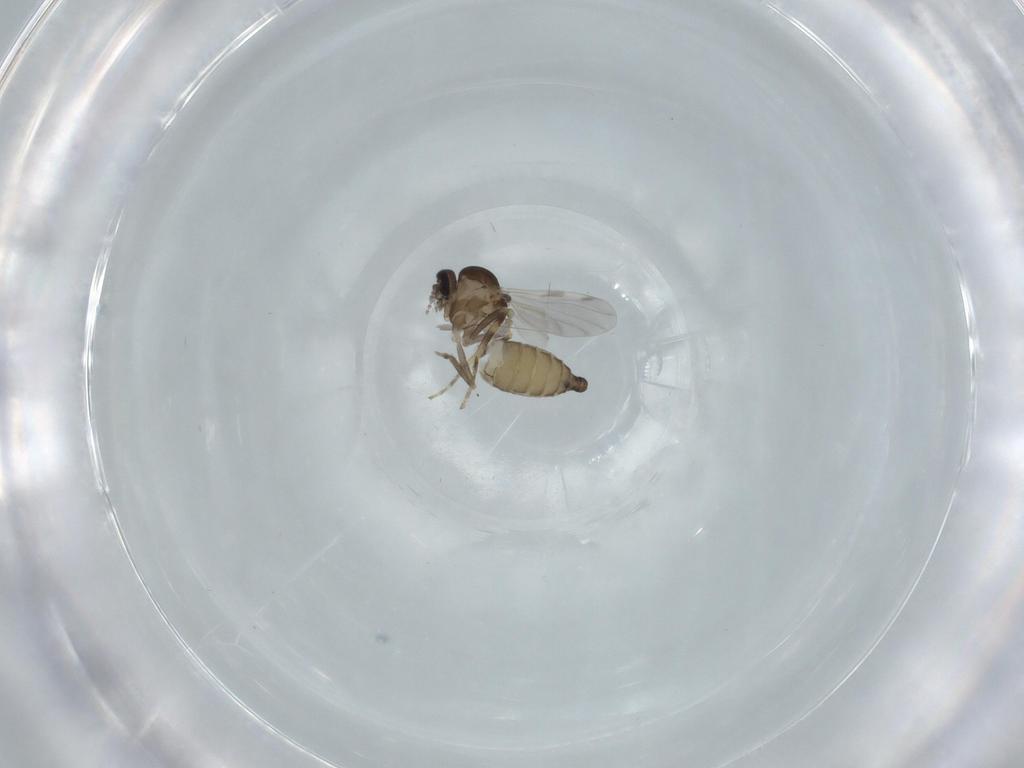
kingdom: Animalia
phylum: Arthropoda
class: Insecta
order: Diptera
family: Ceratopogonidae
